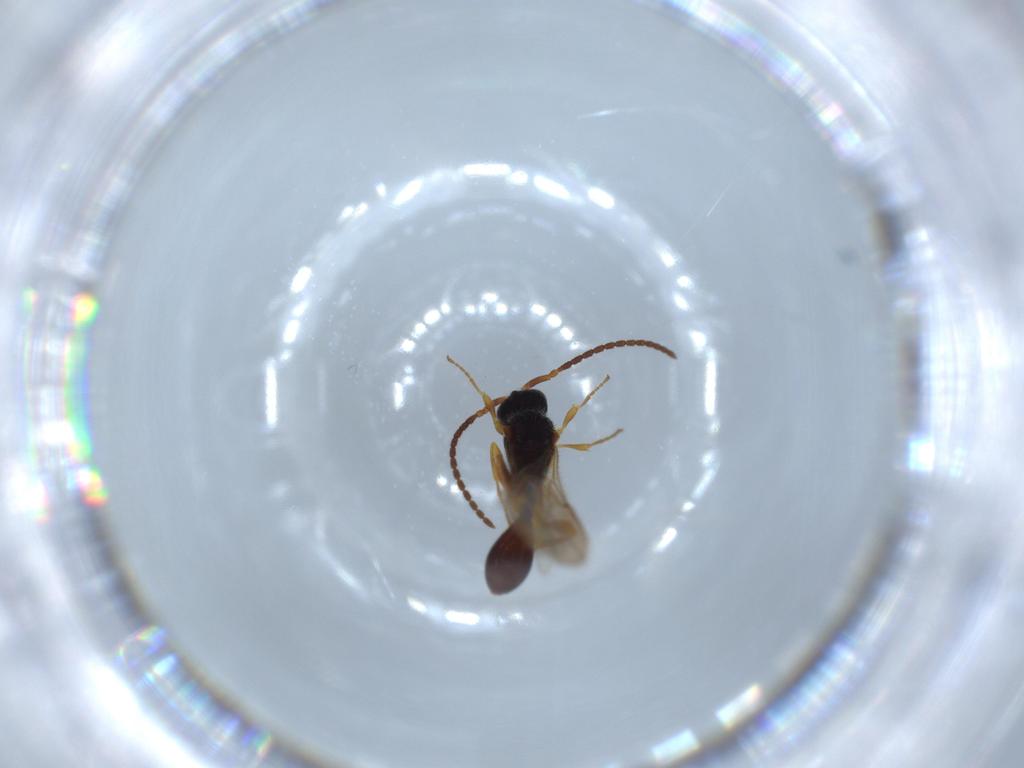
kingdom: Animalia
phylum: Arthropoda
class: Insecta
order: Hymenoptera
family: Diapriidae
